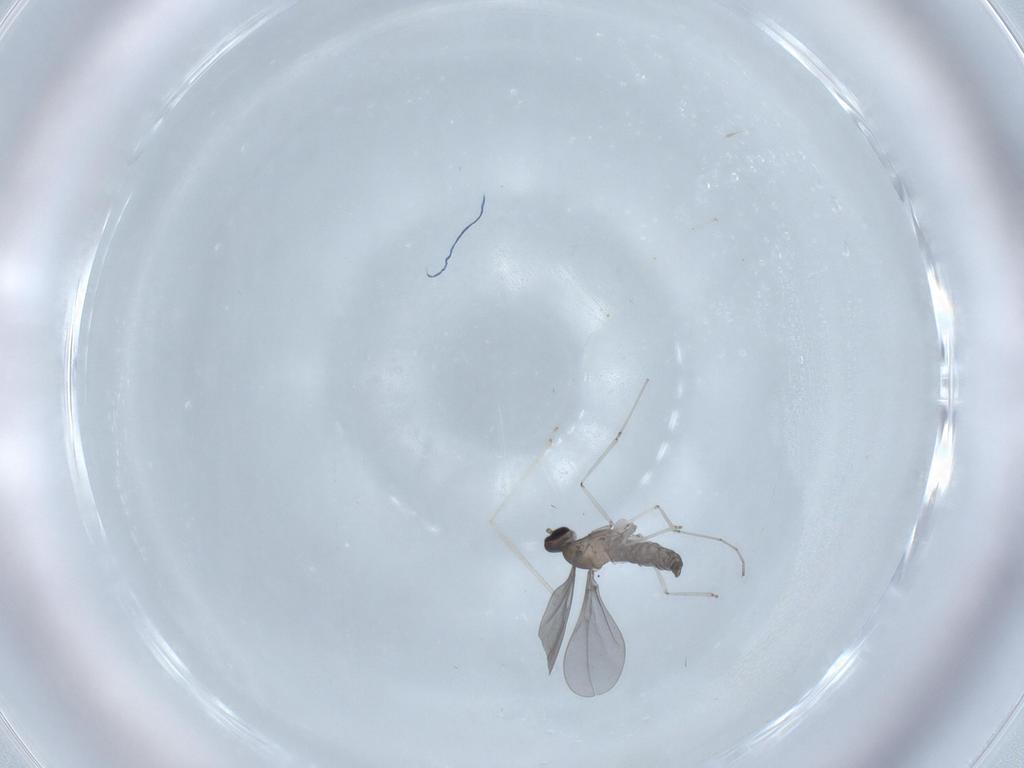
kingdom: Animalia
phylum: Arthropoda
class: Insecta
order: Diptera
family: Cecidomyiidae
